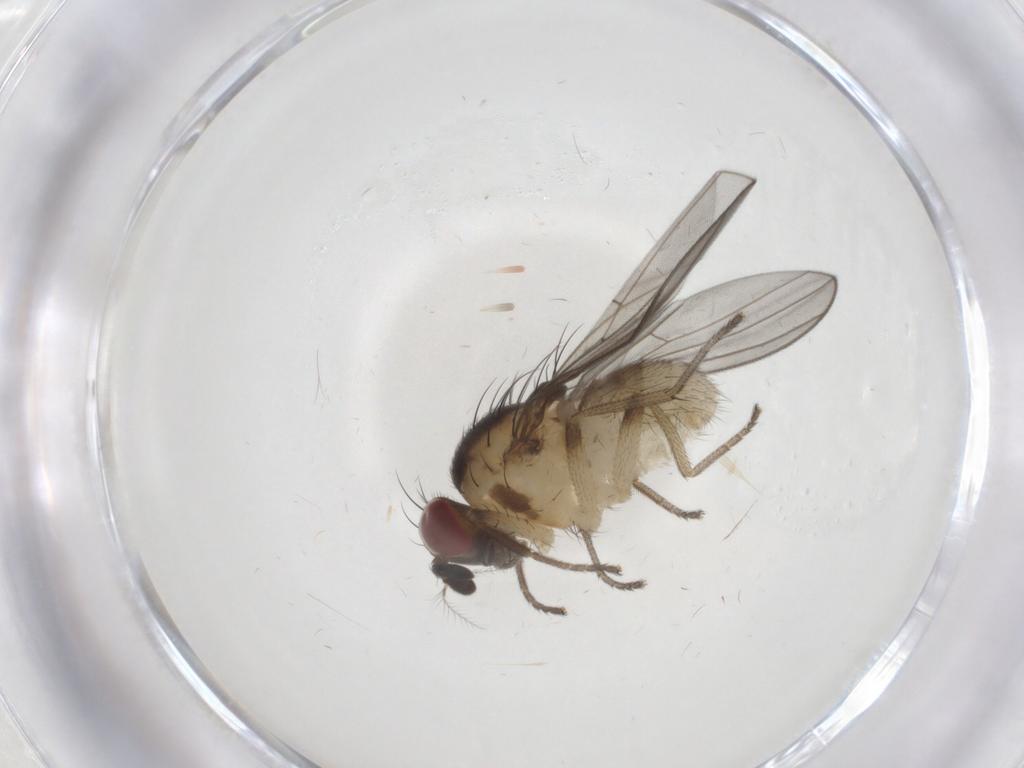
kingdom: Animalia
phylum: Arthropoda
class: Insecta
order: Diptera
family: Lauxaniidae
